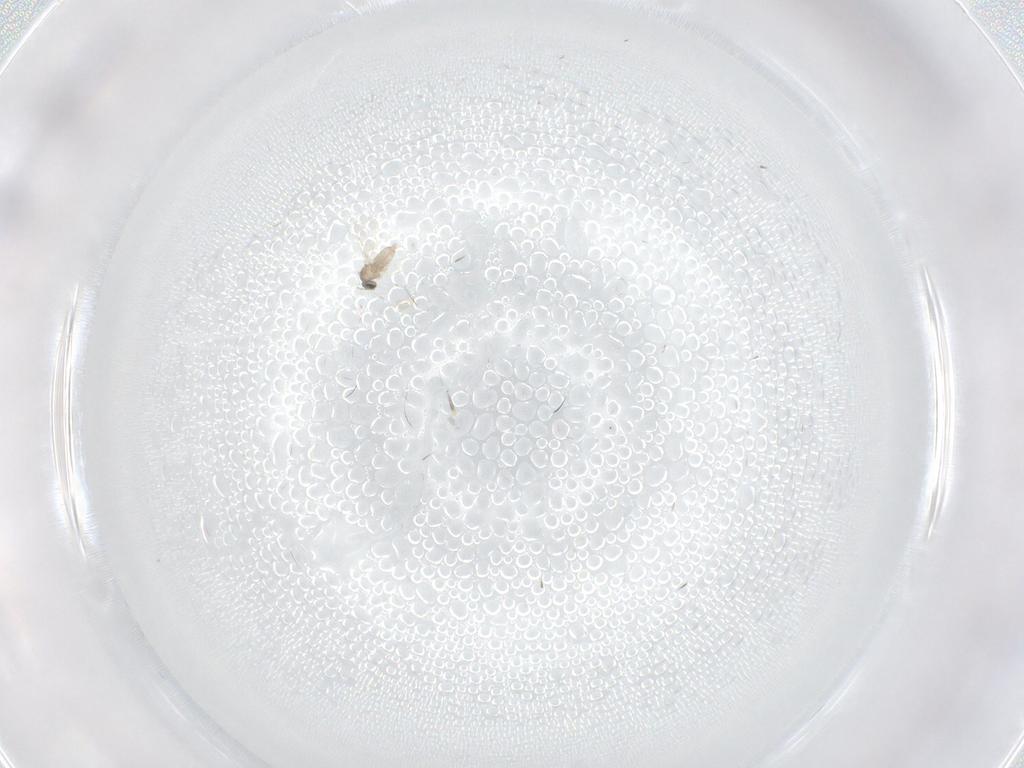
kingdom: Animalia
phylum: Arthropoda
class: Insecta
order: Diptera
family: Cecidomyiidae
